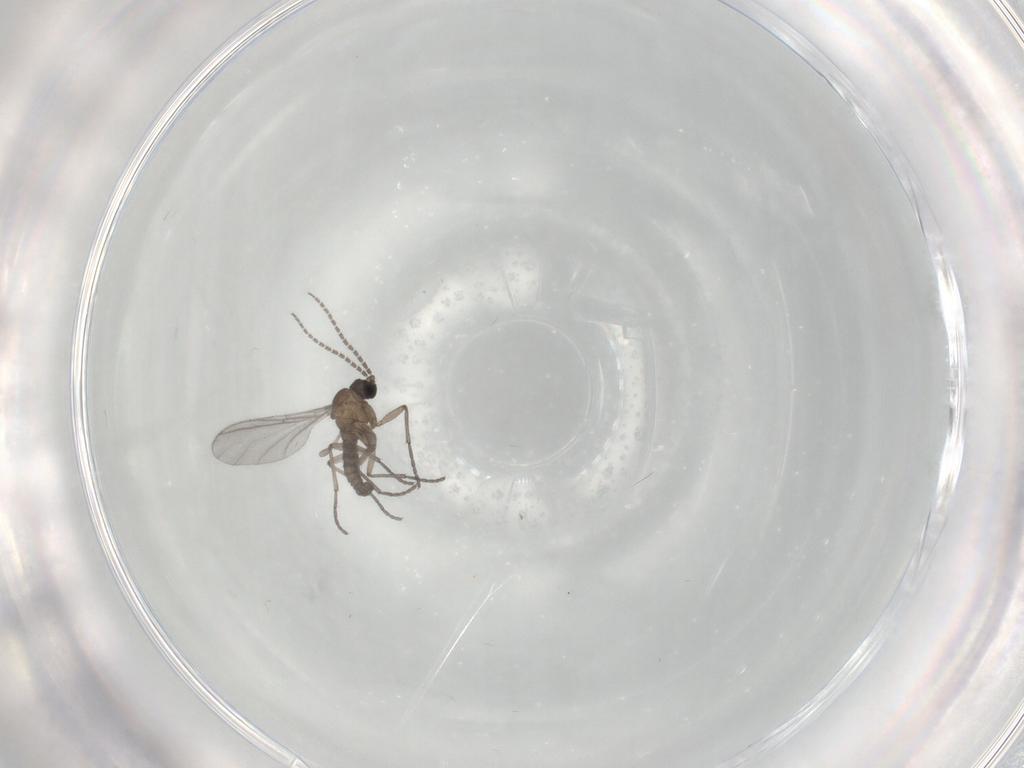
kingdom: Animalia
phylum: Arthropoda
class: Insecta
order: Diptera
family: Sciaridae
